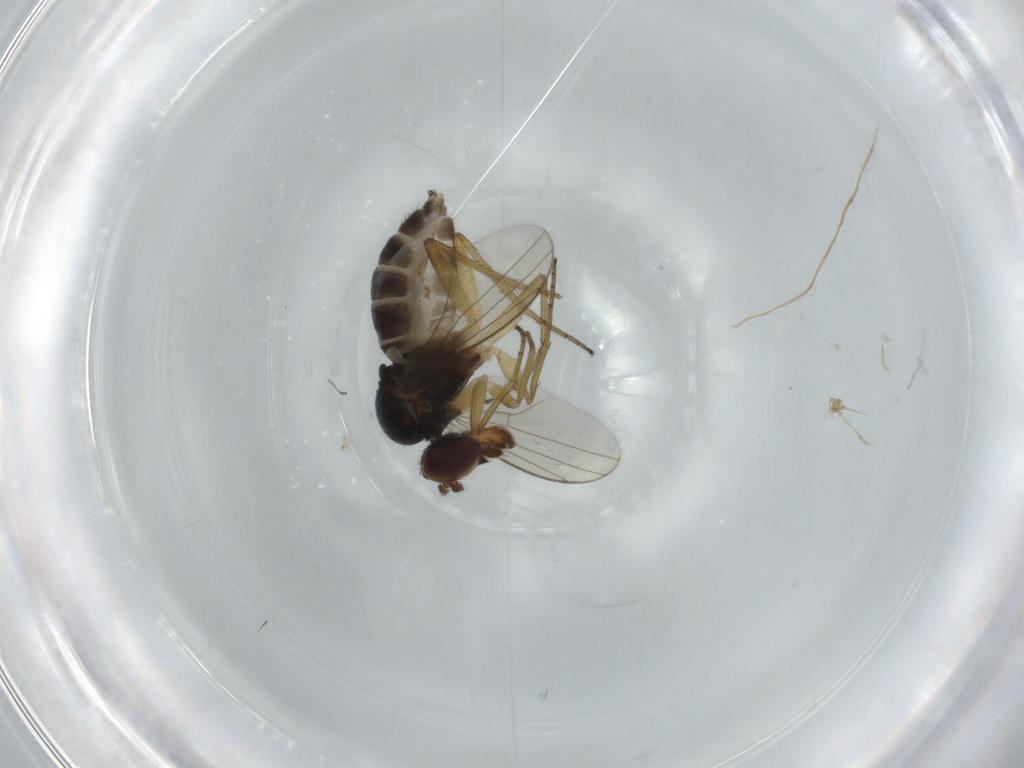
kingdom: Animalia
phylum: Arthropoda
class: Insecta
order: Diptera
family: Dolichopodidae
